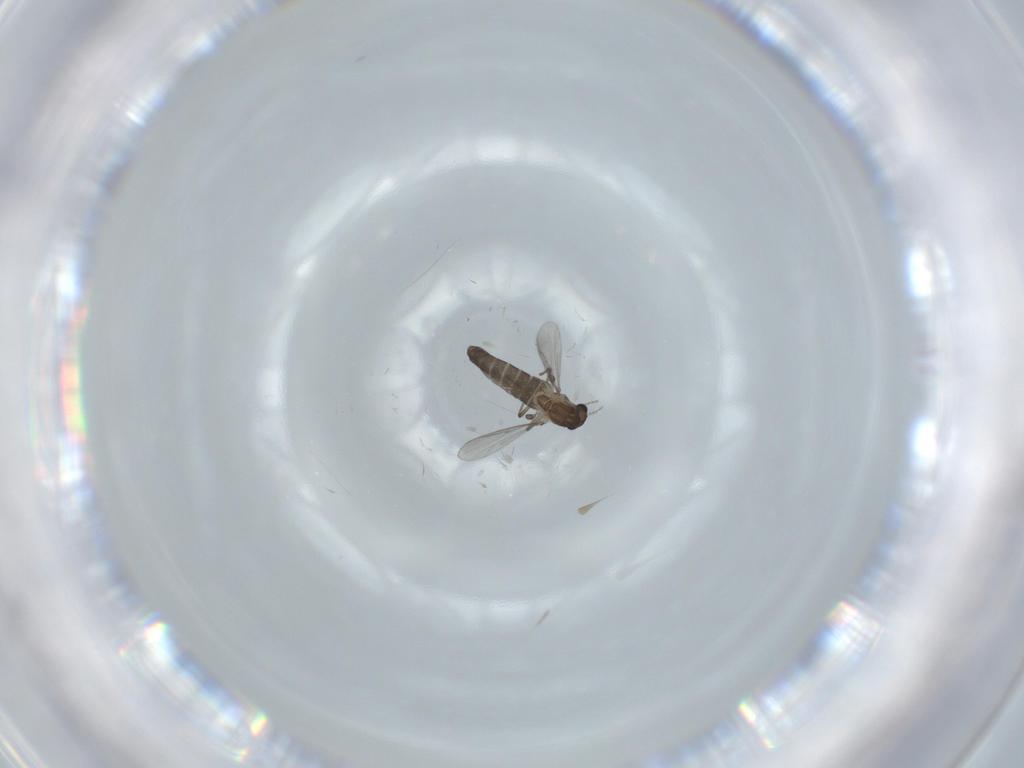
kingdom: Animalia
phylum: Arthropoda
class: Insecta
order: Diptera
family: Chironomidae
